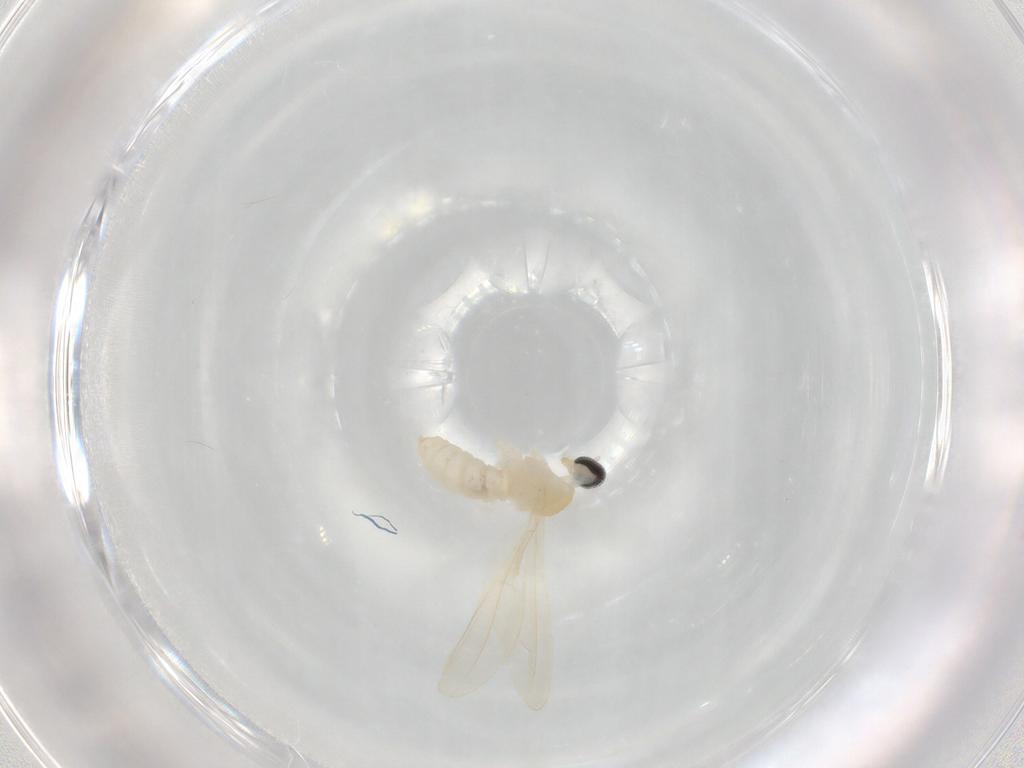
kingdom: Animalia
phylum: Arthropoda
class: Insecta
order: Diptera
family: Cecidomyiidae
